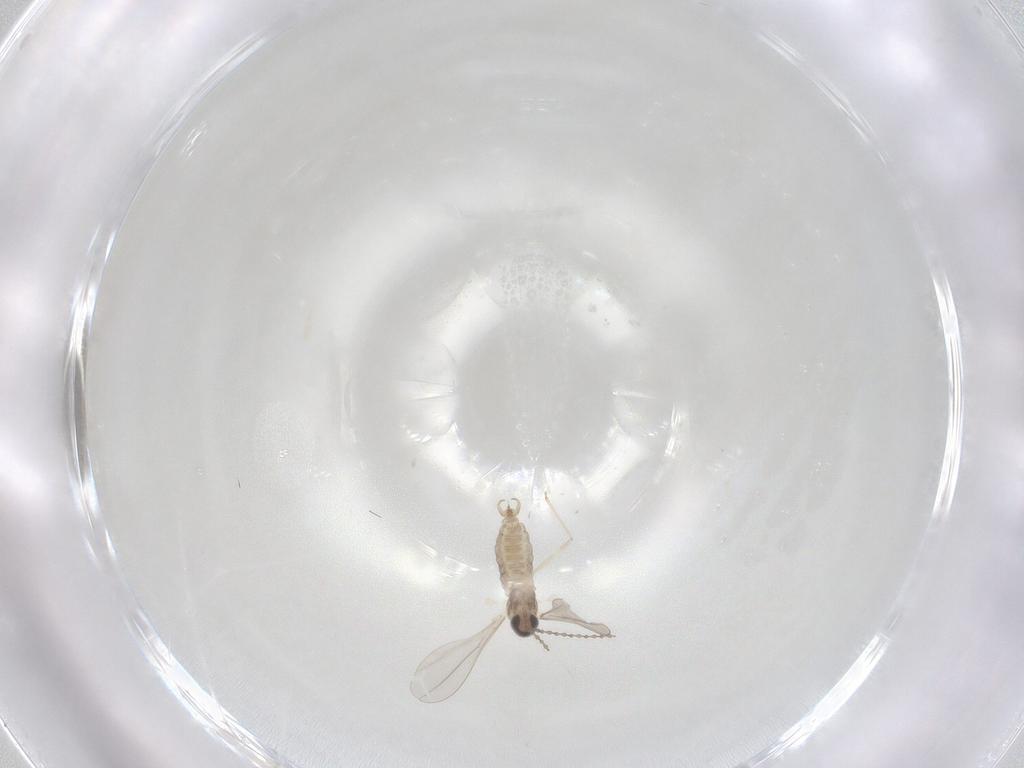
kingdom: Animalia
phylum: Arthropoda
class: Insecta
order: Diptera
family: Cecidomyiidae
